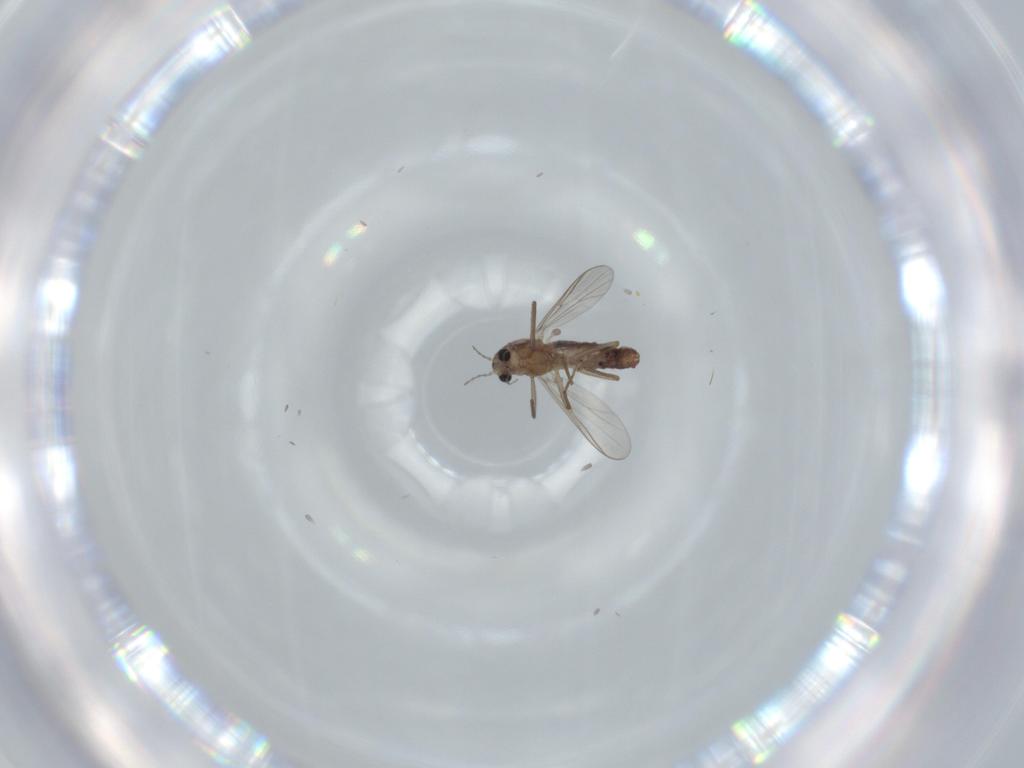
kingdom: Animalia
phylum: Arthropoda
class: Insecta
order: Diptera
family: Chironomidae
